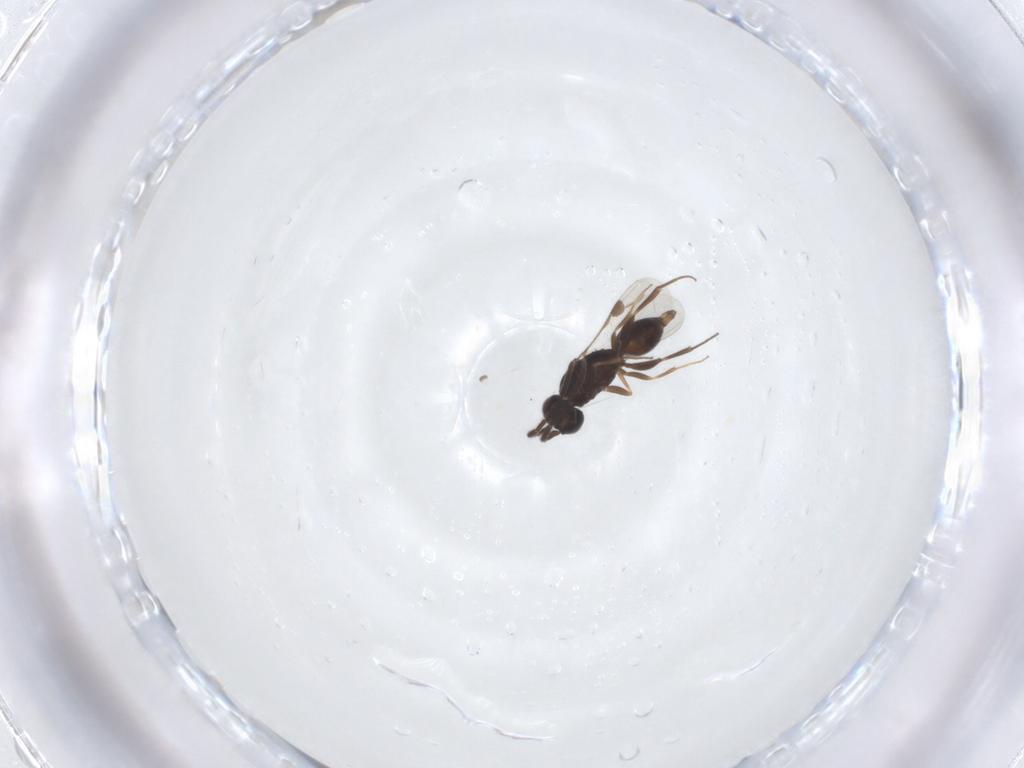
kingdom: Animalia
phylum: Arthropoda
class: Insecta
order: Hymenoptera
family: Megaspilidae
